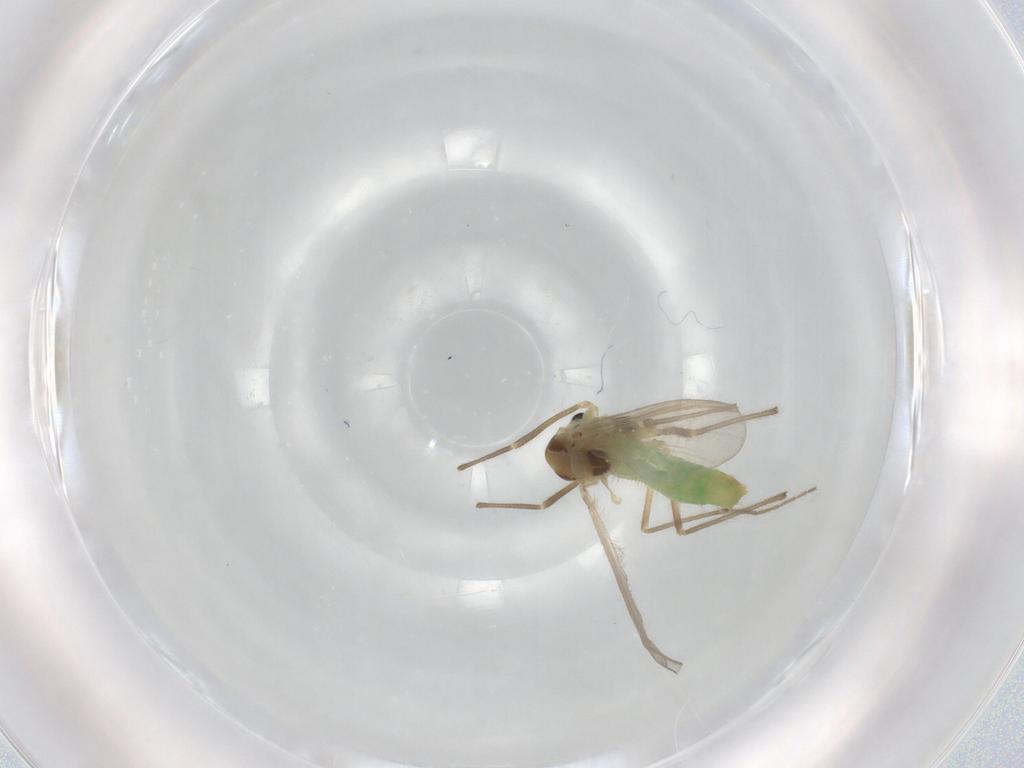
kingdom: Animalia
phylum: Arthropoda
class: Insecta
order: Diptera
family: Chironomidae
